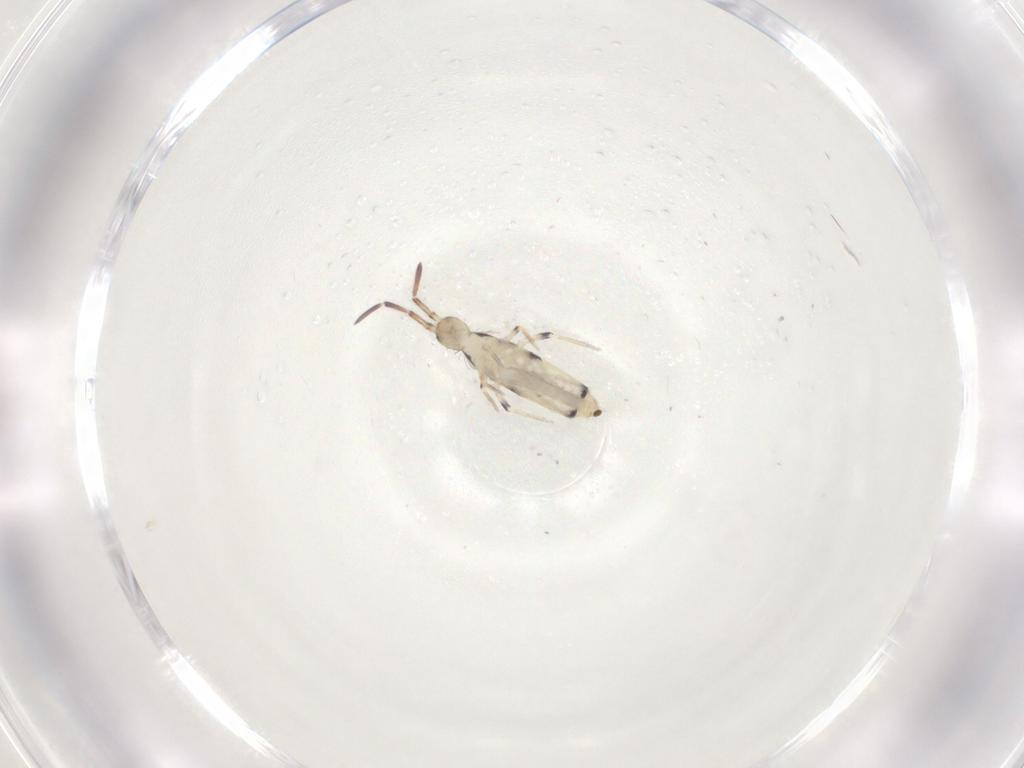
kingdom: Animalia
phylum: Arthropoda
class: Collembola
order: Entomobryomorpha
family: Entomobryidae
